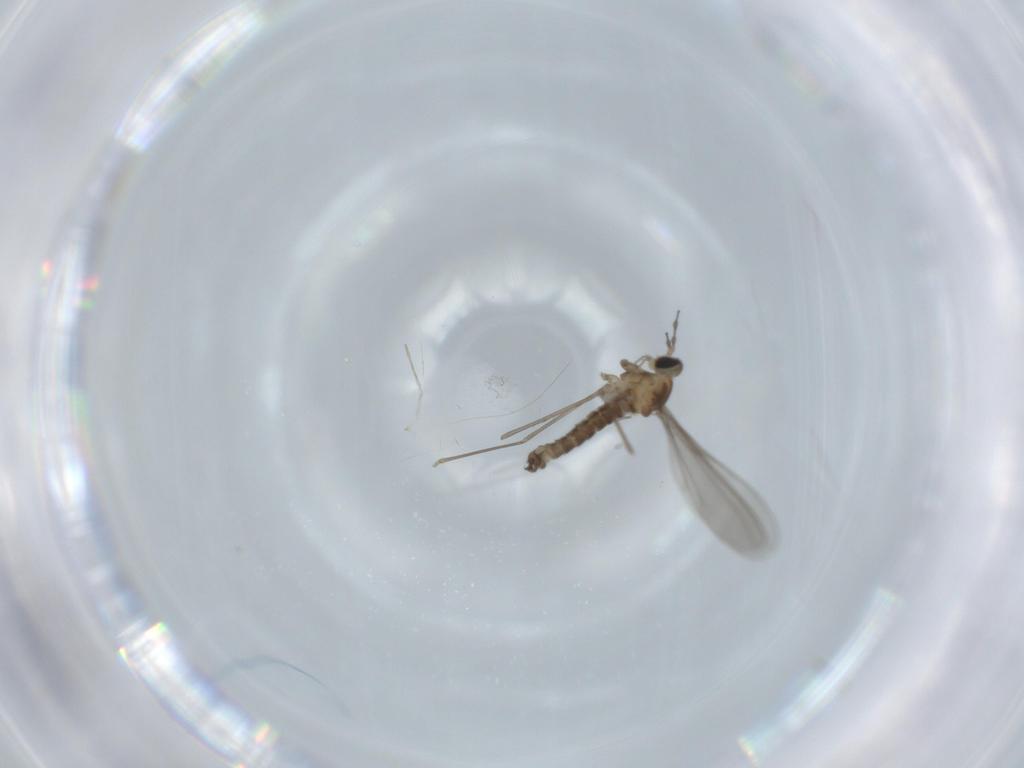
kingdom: Animalia
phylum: Arthropoda
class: Insecta
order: Diptera
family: Cecidomyiidae
